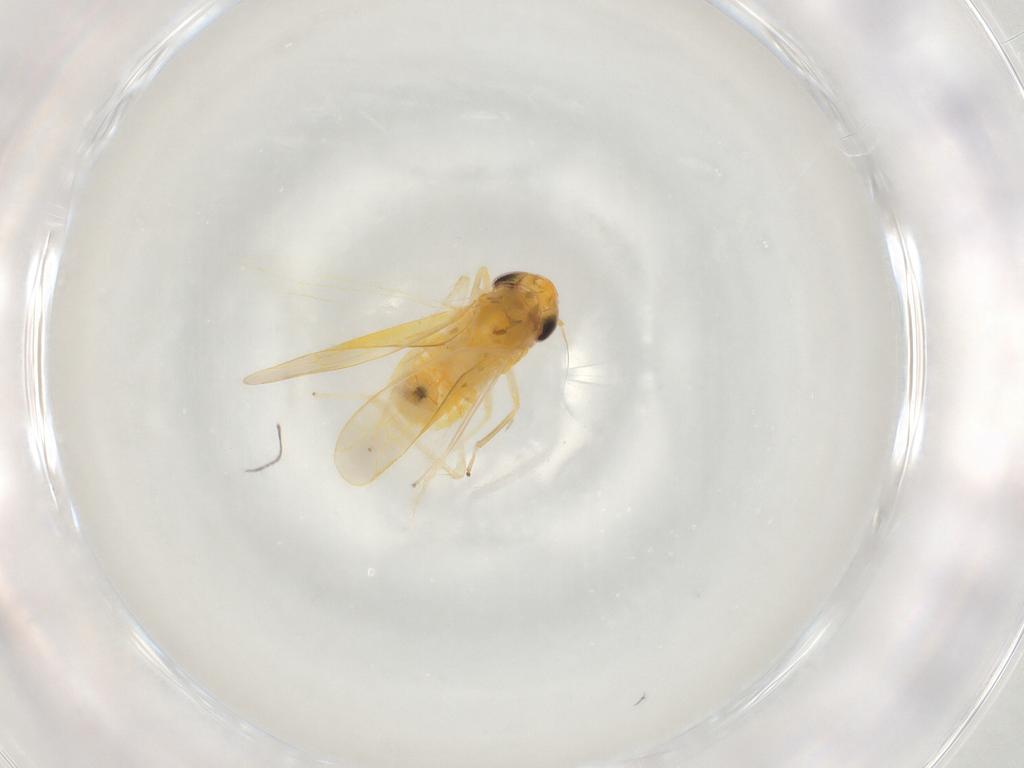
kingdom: Animalia
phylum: Arthropoda
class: Insecta
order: Hemiptera
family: Cicadellidae
